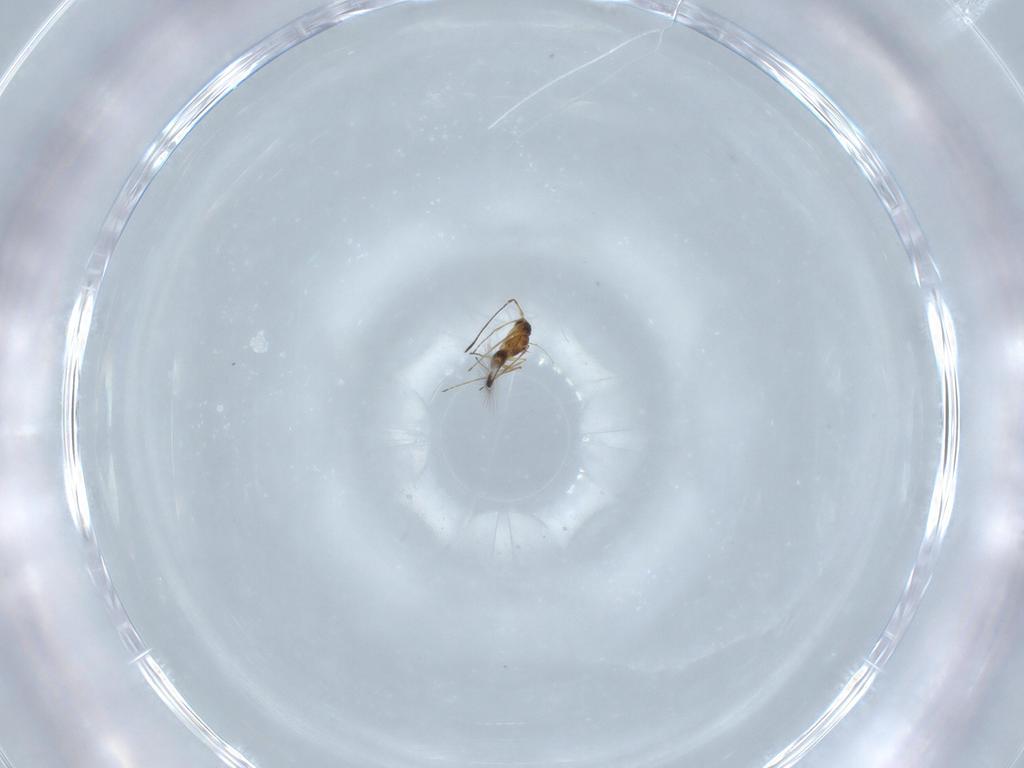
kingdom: Animalia
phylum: Arthropoda
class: Insecta
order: Hymenoptera
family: Mymaridae
